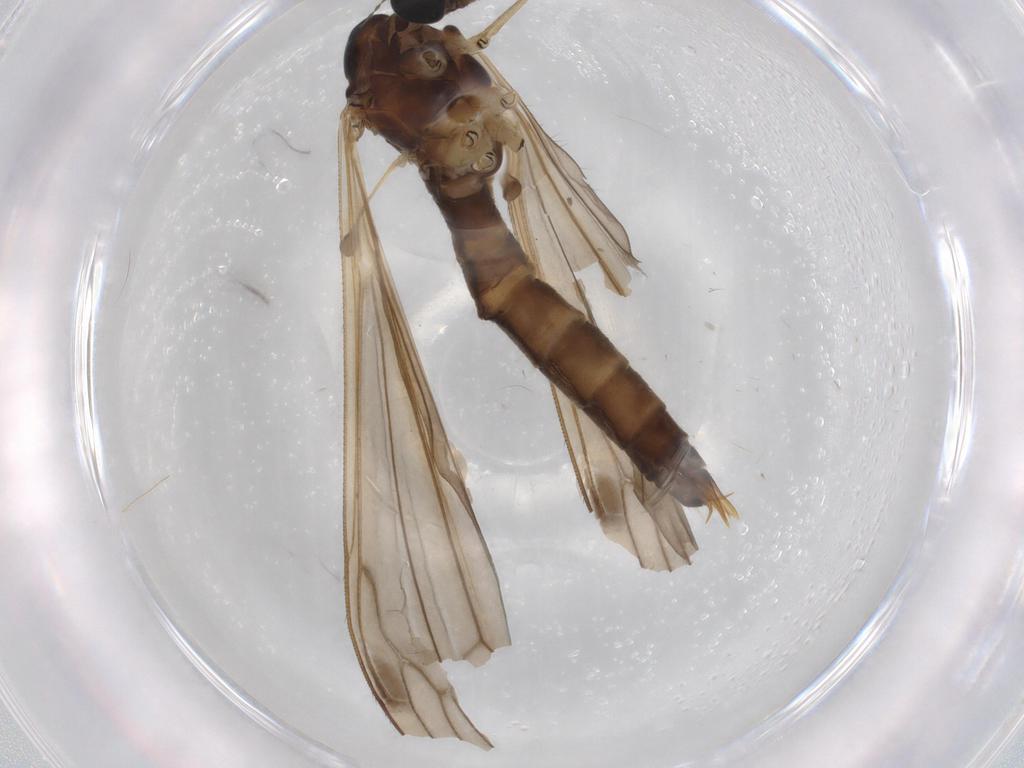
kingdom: Animalia
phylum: Arthropoda
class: Insecta
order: Diptera
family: Limoniidae
